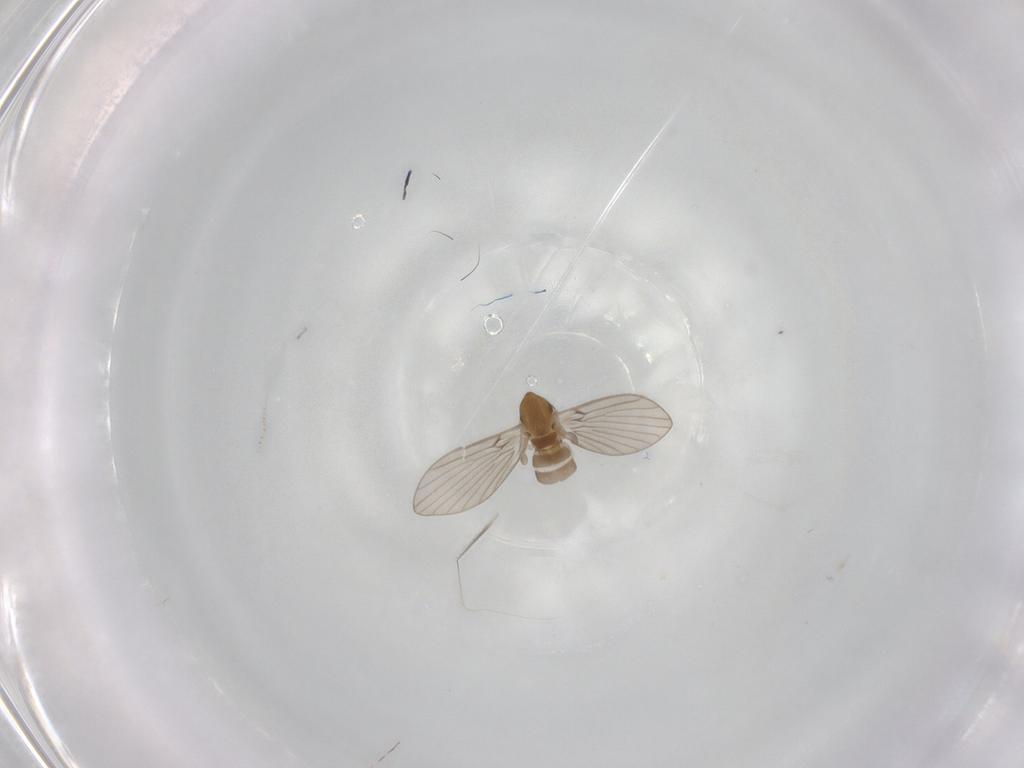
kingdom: Animalia
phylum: Arthropoda
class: Insecta
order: Diptera
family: Psychodidae
